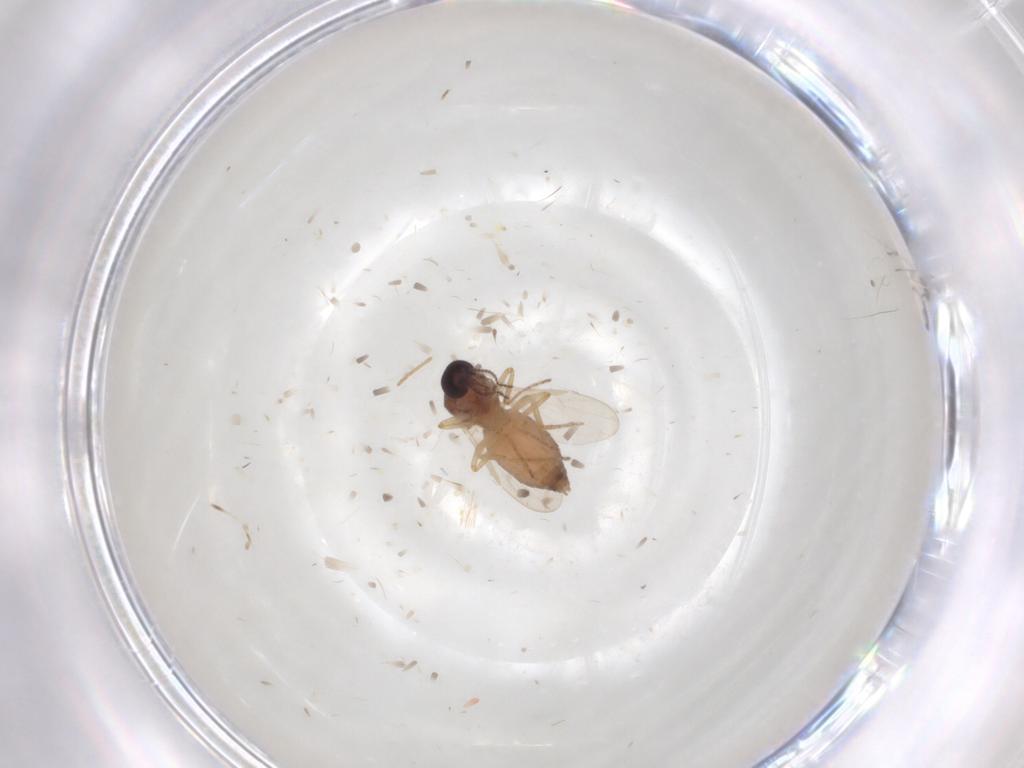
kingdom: Animalia
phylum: Arthropoda
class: Insecta
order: Diptera
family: Ceratopogonidae
